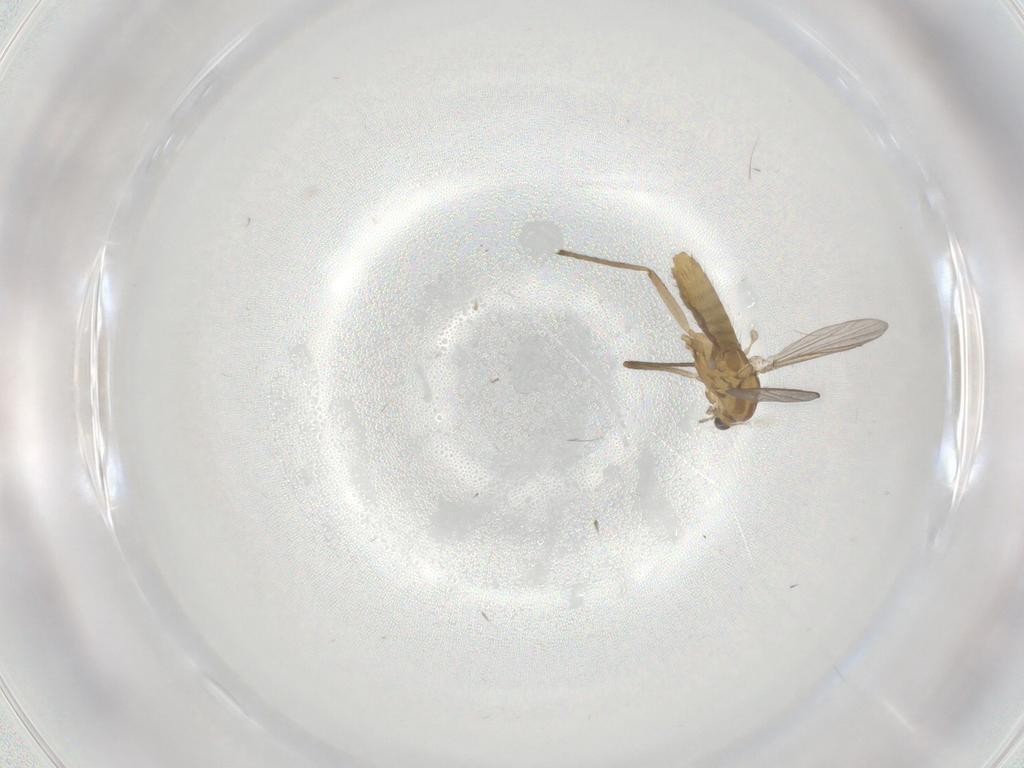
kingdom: Animalia
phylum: Arthropoda
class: Insecta
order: Diptera
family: Chironomidae
